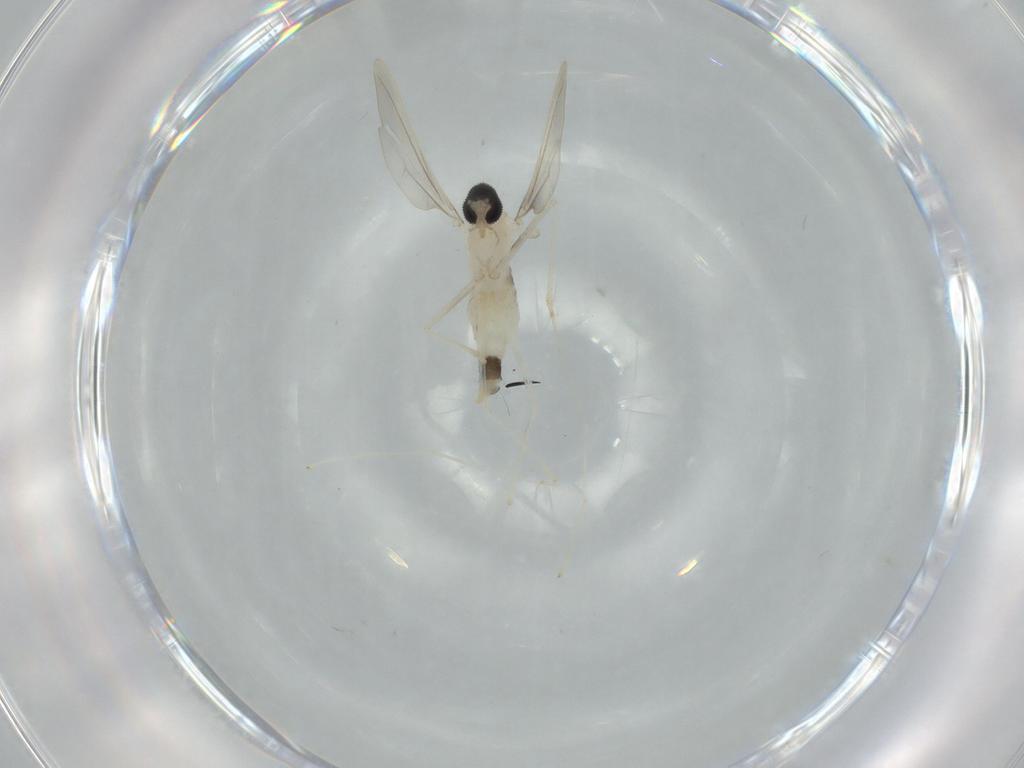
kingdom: Animalia
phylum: Arthropoda
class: Insecta
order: Diptera
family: Cecidomyiidae
